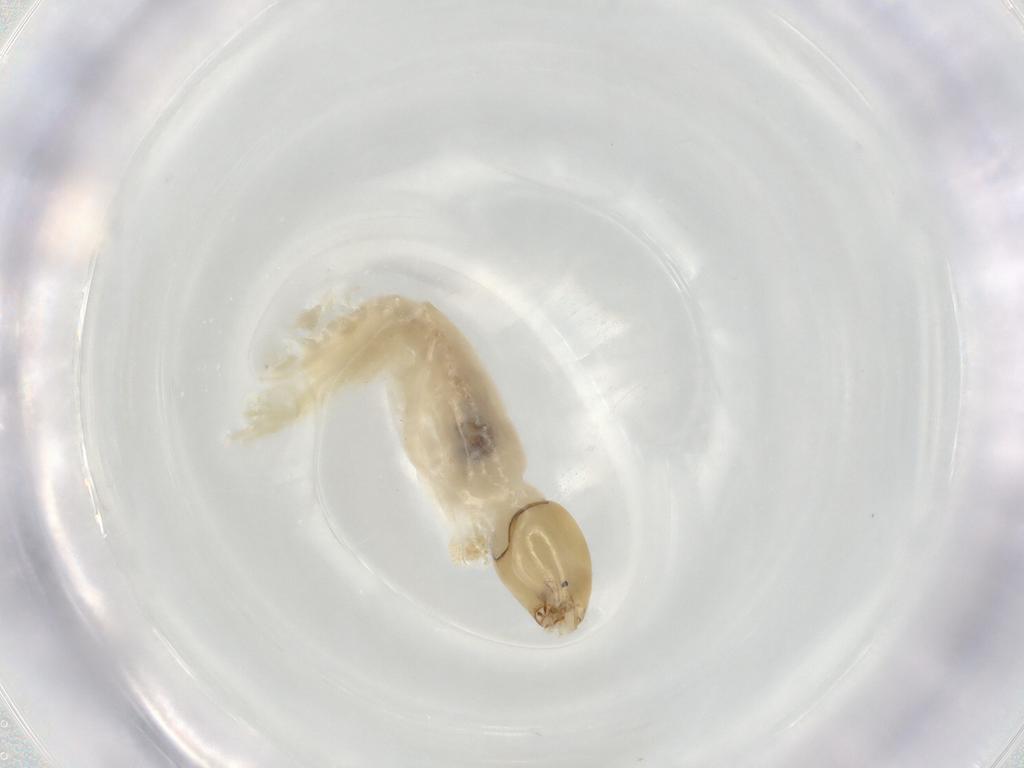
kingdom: Animalia
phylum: Arthropoda
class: Insecta
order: Diptera
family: Chironomidae
